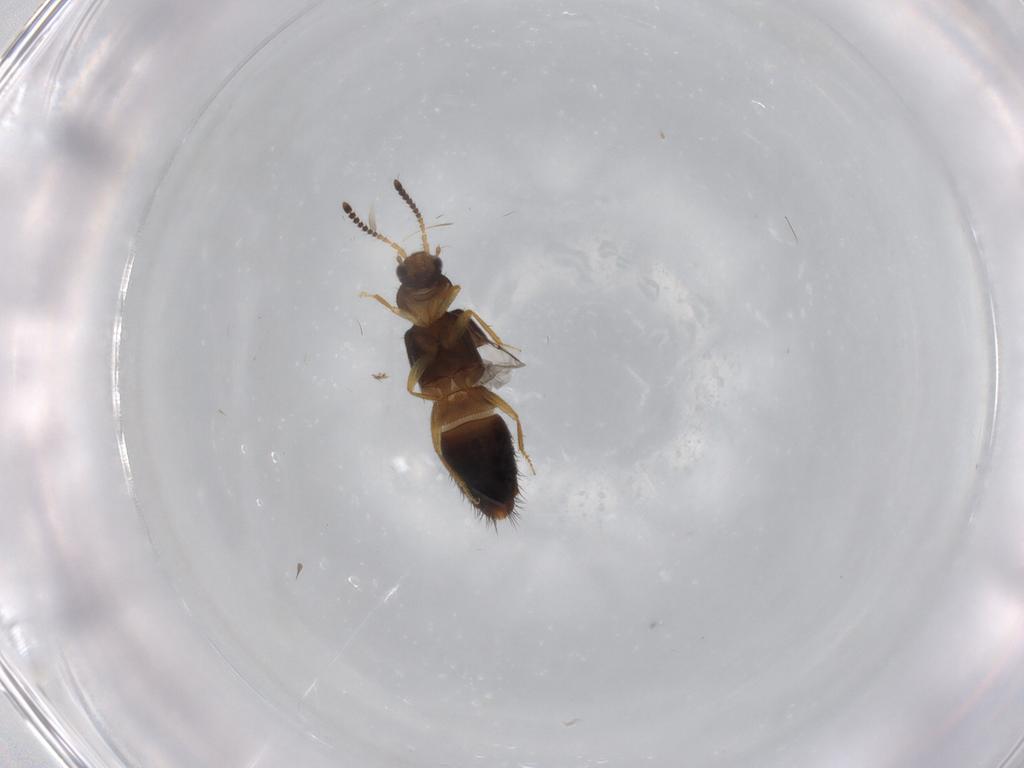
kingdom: Animalia
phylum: Arthropoda
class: Insecta
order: Coleoptera
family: Staphylinidae
